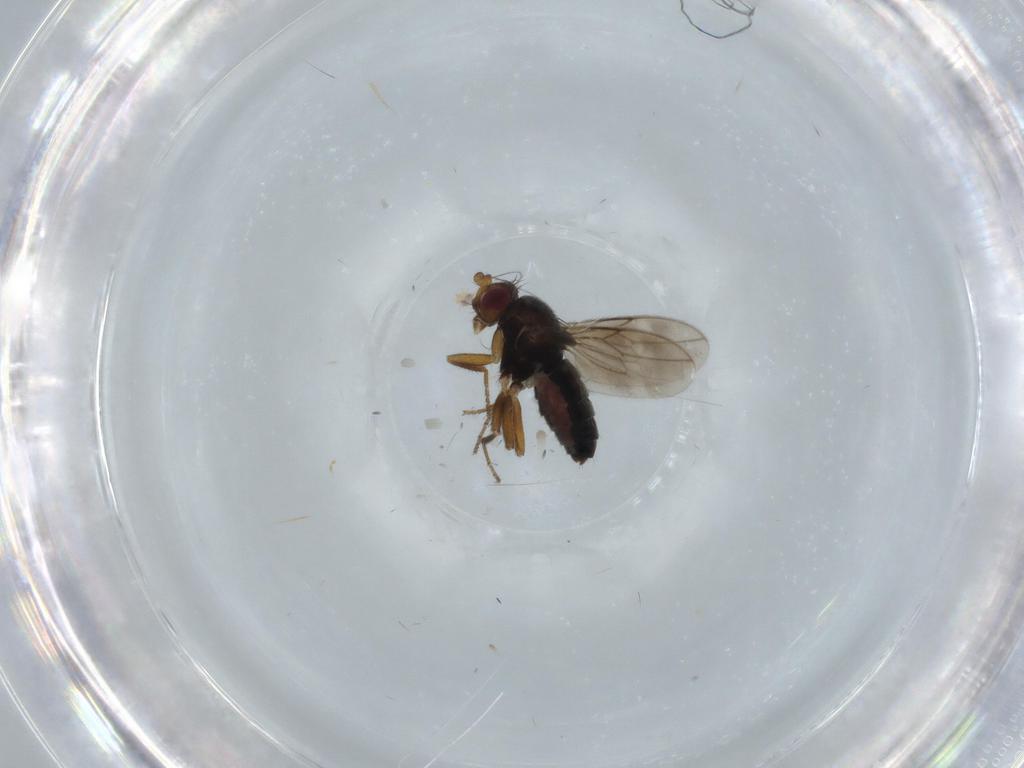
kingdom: Animalia
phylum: Arthropoda
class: Insecta
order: Diptera
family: Sphaeroceridae
